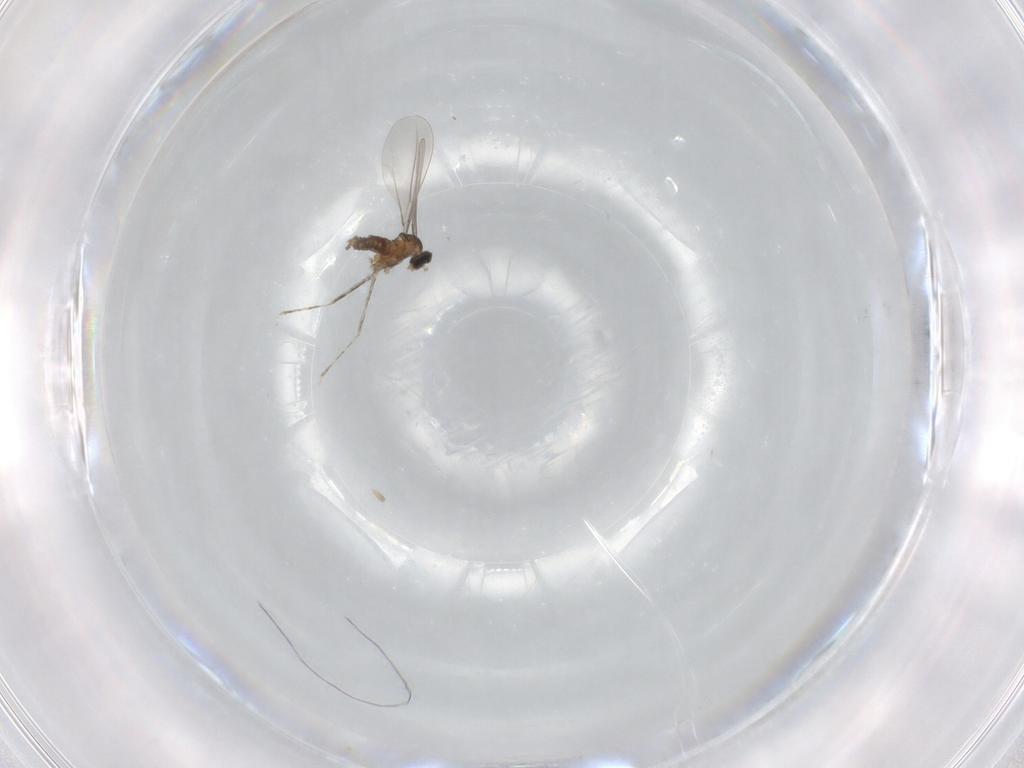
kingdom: Animalia
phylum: Arthropoda
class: Insecta
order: Diptera
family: Cecidomyiidae
